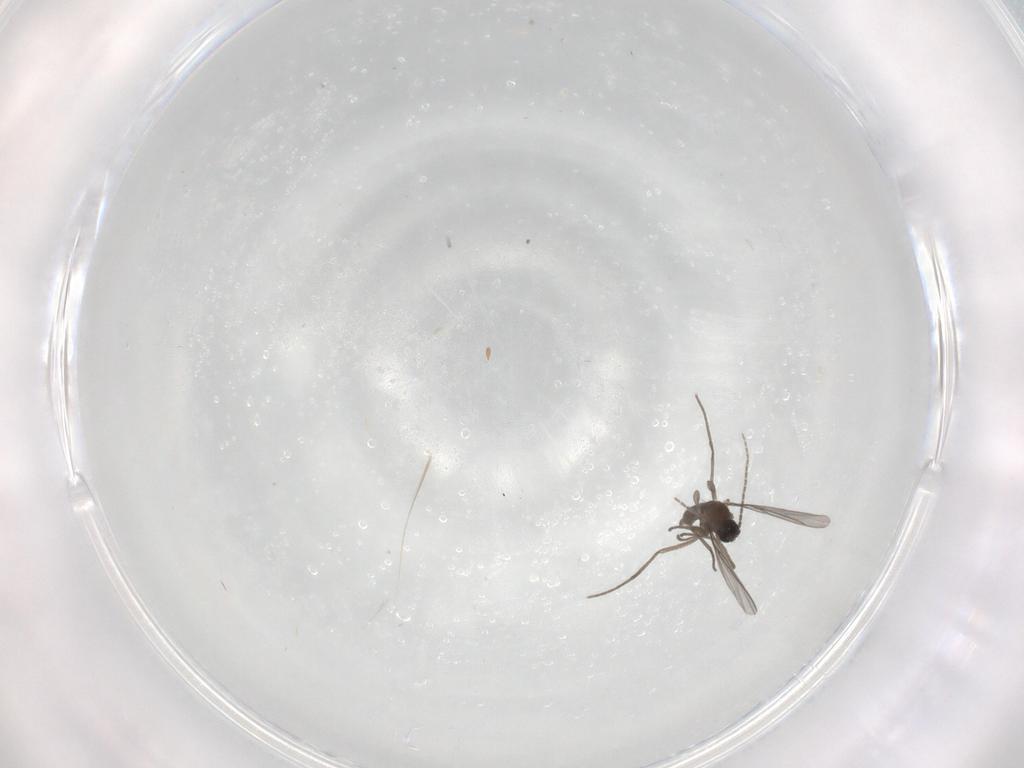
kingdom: Animalia
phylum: Arthropoda
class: Insecta
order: Diptera
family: Sciaridae
